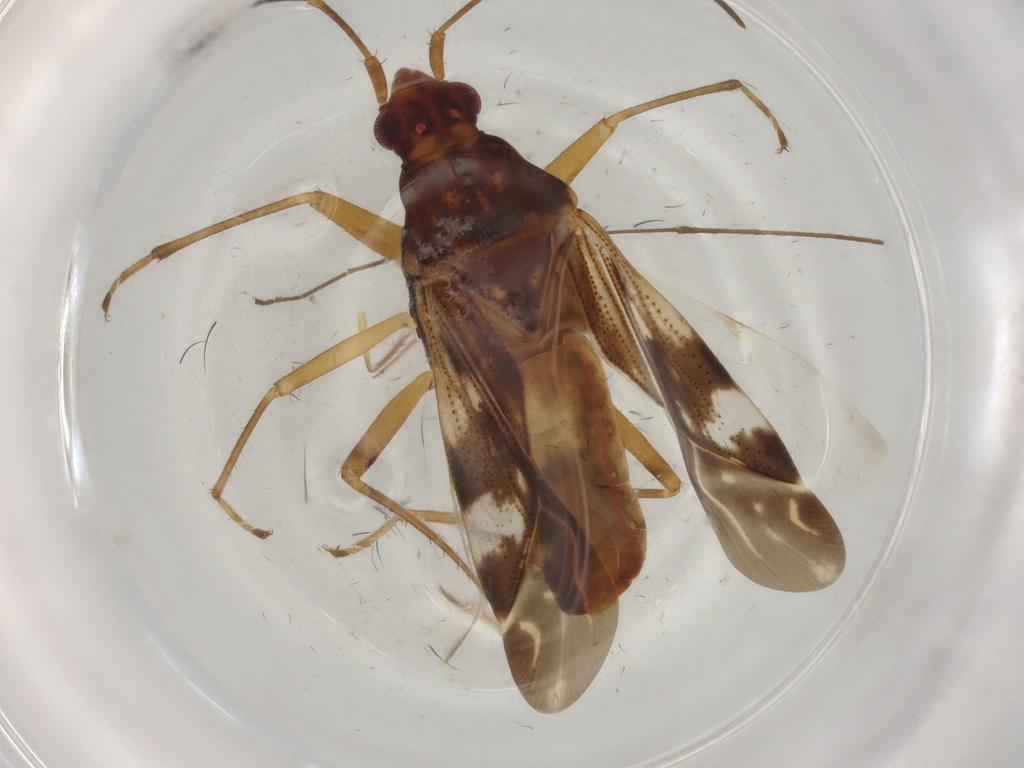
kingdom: Animalia
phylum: Arthropoda
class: Insecta
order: Hemiptera
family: Rhyparochromidae
